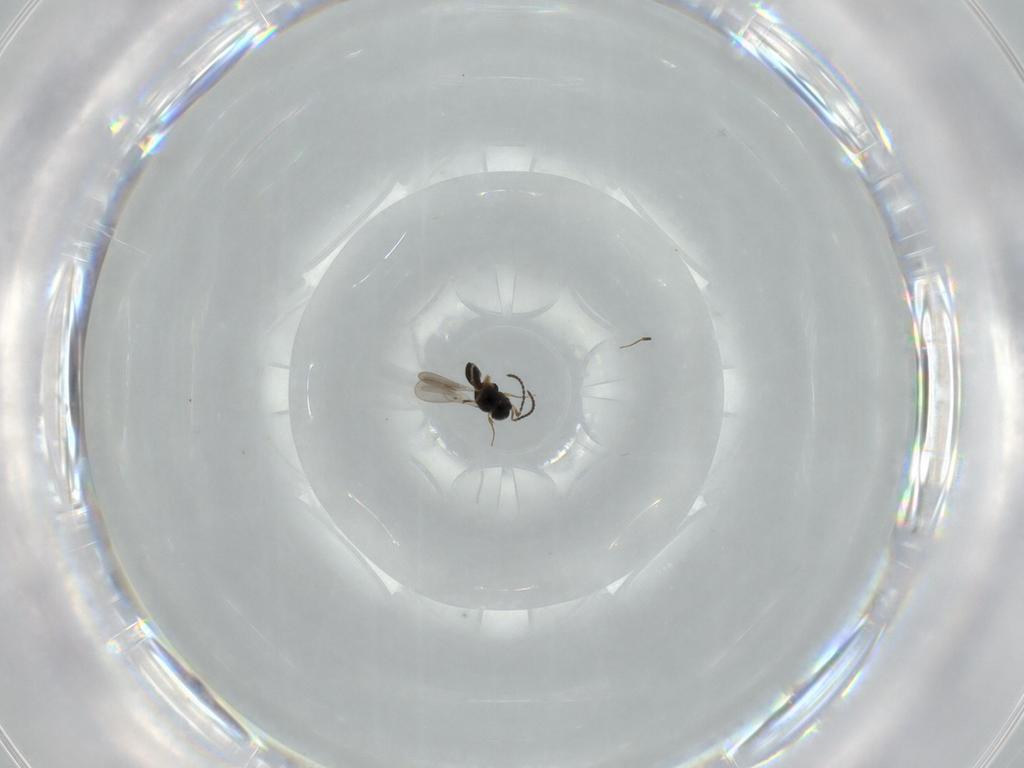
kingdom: Animalia
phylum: Arthropoda
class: Insecta
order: Hymenoptera
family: Scelionidae
